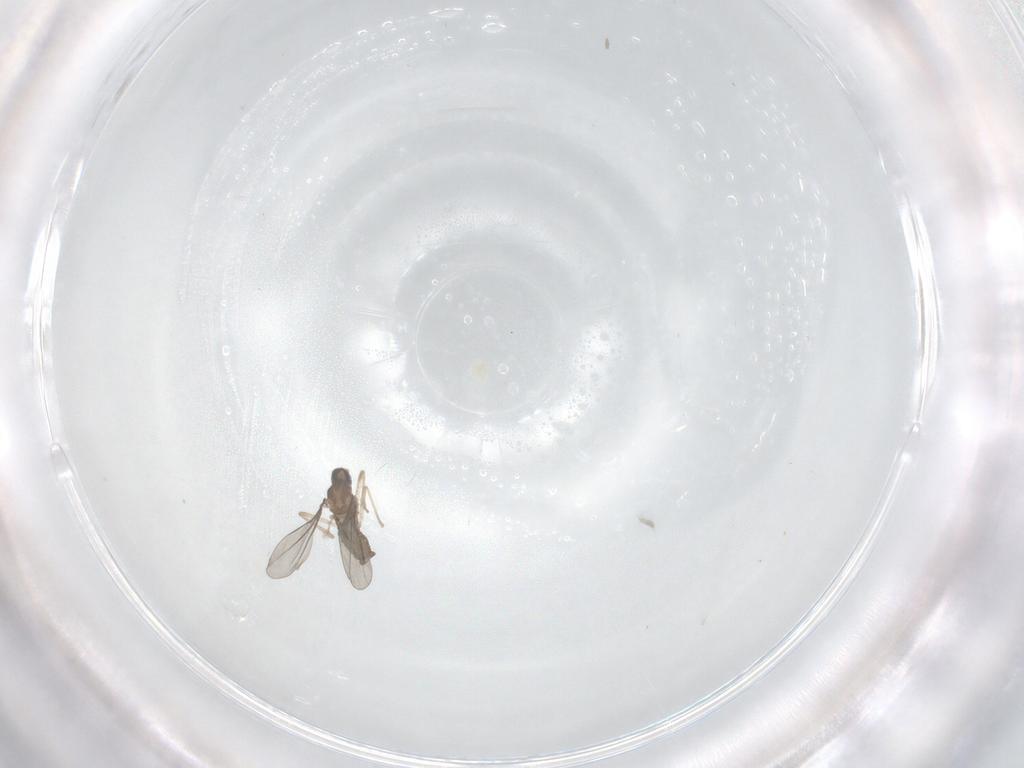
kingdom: Animalia
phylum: Arthropoda
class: Insecta
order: Diptera
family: Cecidomyiidae
